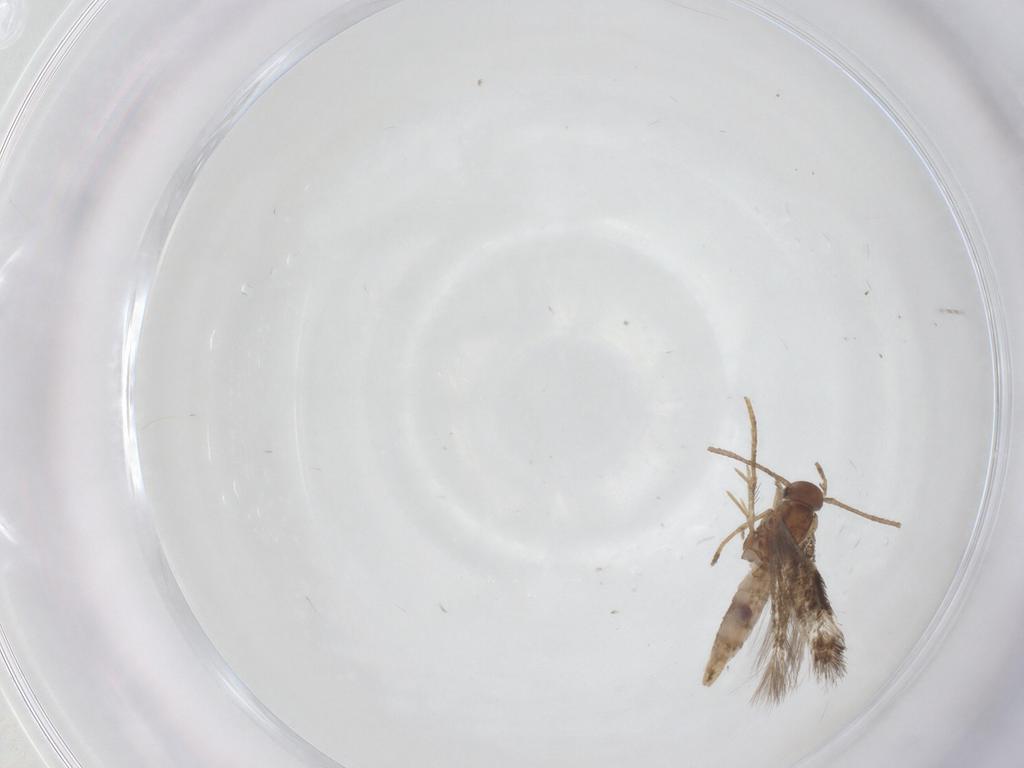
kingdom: Animalia
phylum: Arthropoda
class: Insecta
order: Lepidoptera
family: Gelechiidae
